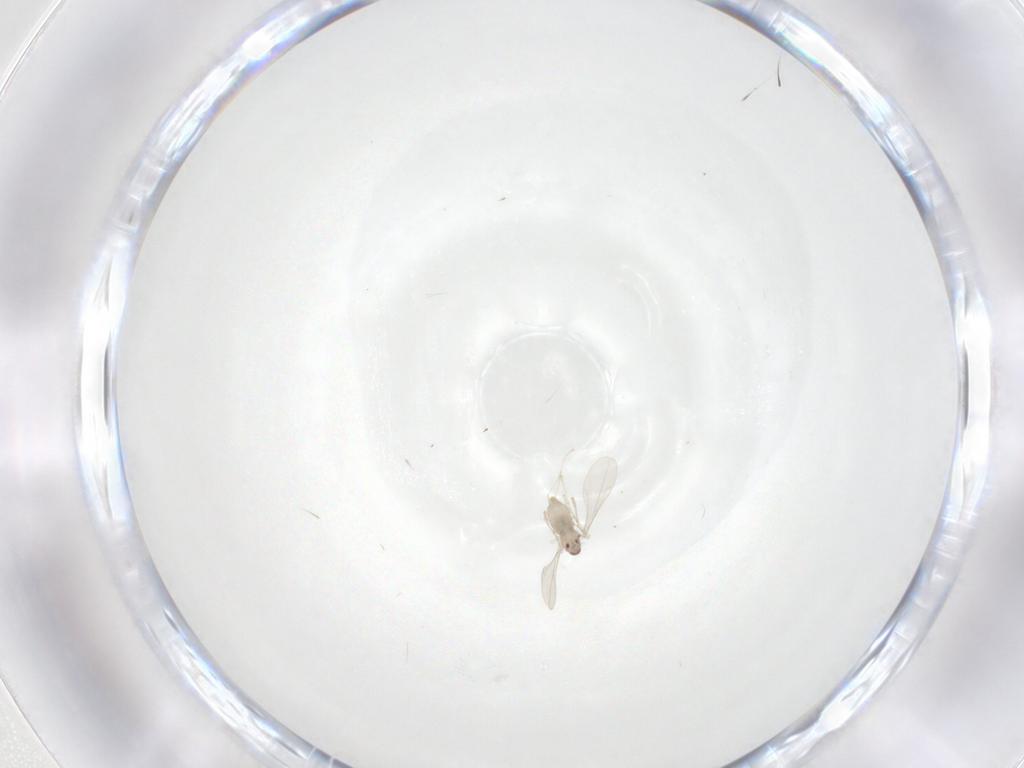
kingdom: Animalia
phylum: Arthropoda
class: Insecta
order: Diptera
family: Cecidomyiidae
